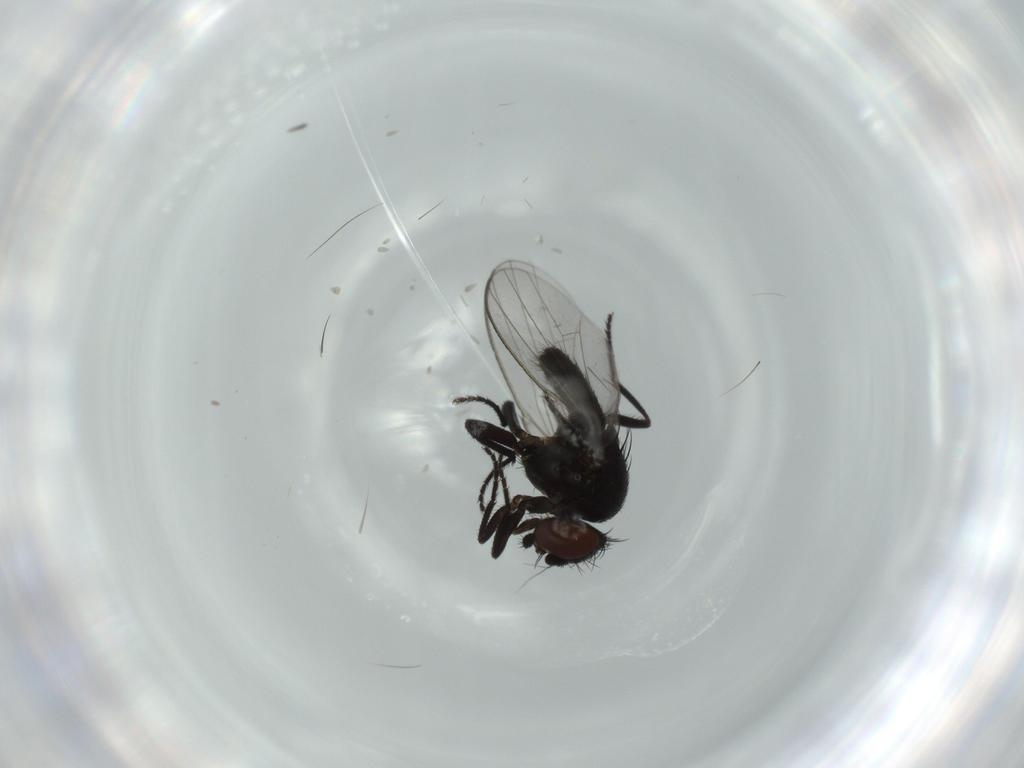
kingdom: Animalia
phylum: Arthropoda
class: Insecta
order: Diptera
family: Milichiidae
